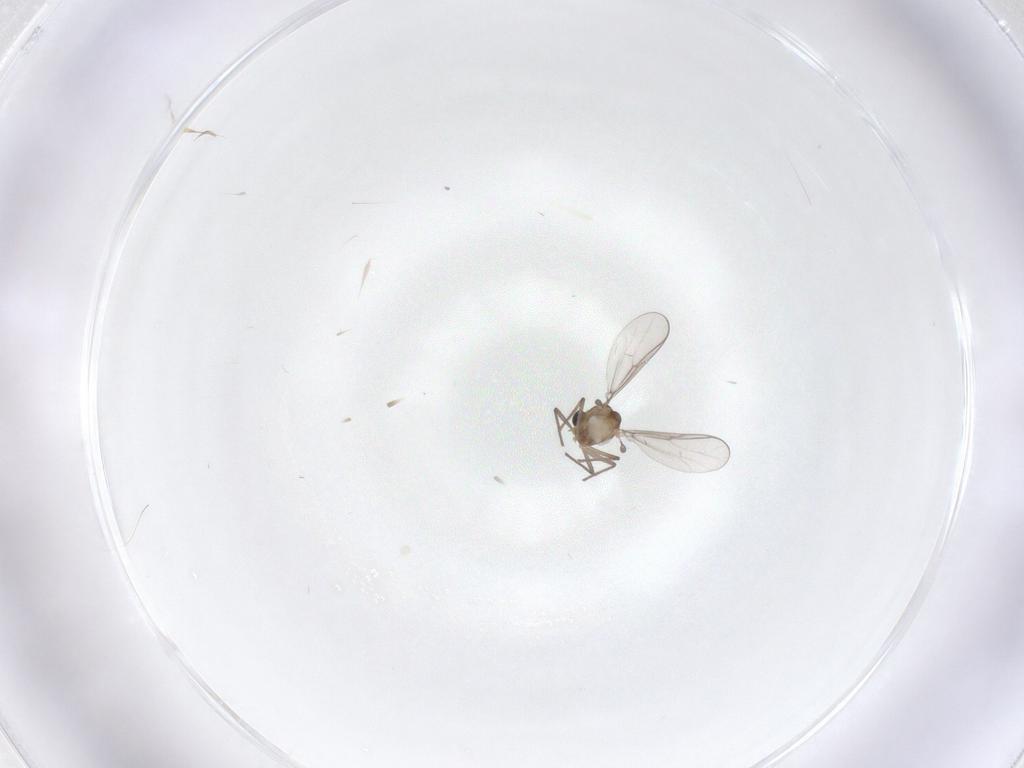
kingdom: Animalia
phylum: Arthropoda
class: Insecta
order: Diptera
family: Chironomidae
